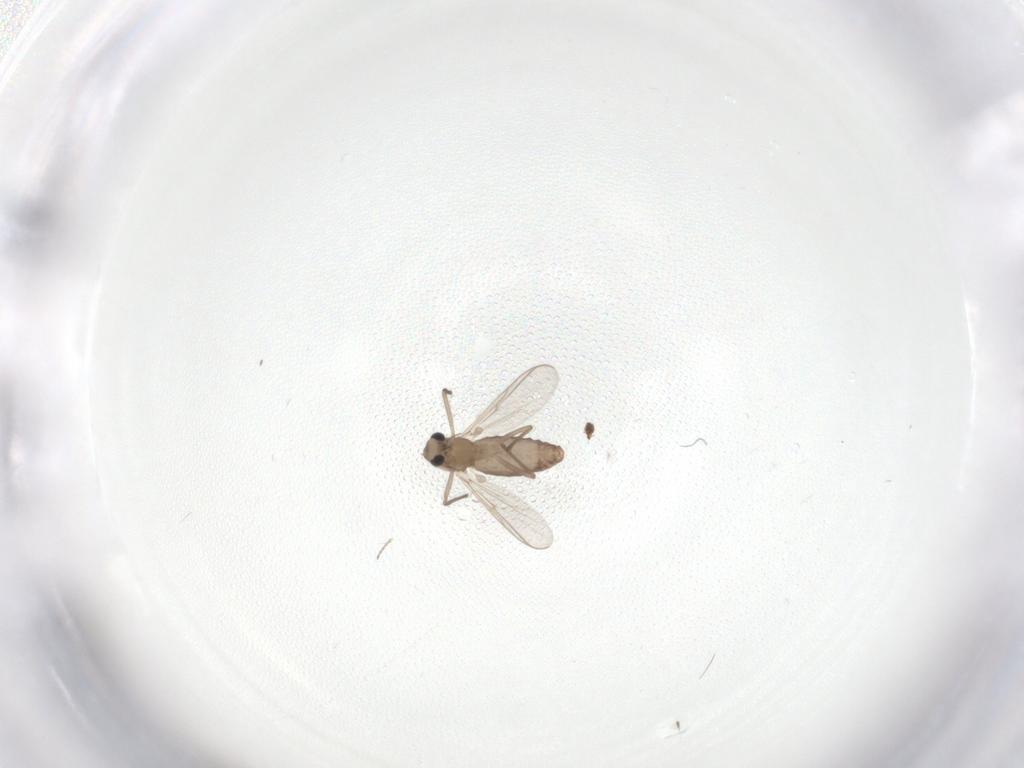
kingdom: Animalia
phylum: Arthropoda
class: Insecta
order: Diptera
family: Chironomidae
